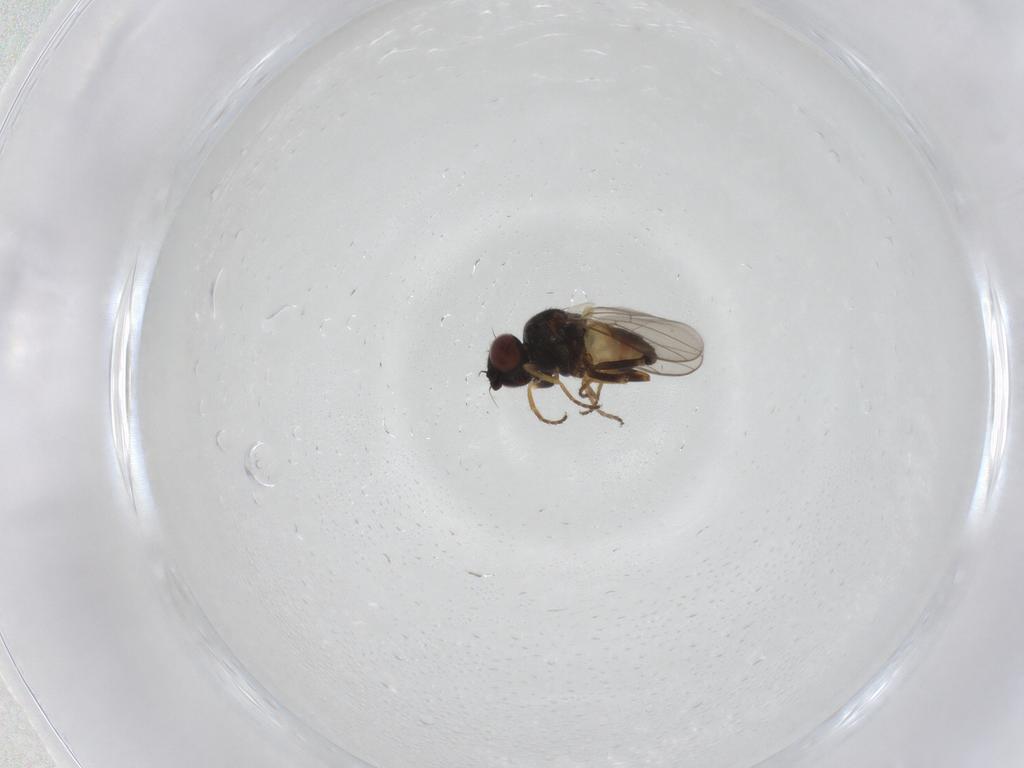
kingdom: Animalia
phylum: Arthropoda
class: Insecta
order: Diptera
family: Chloropidae
